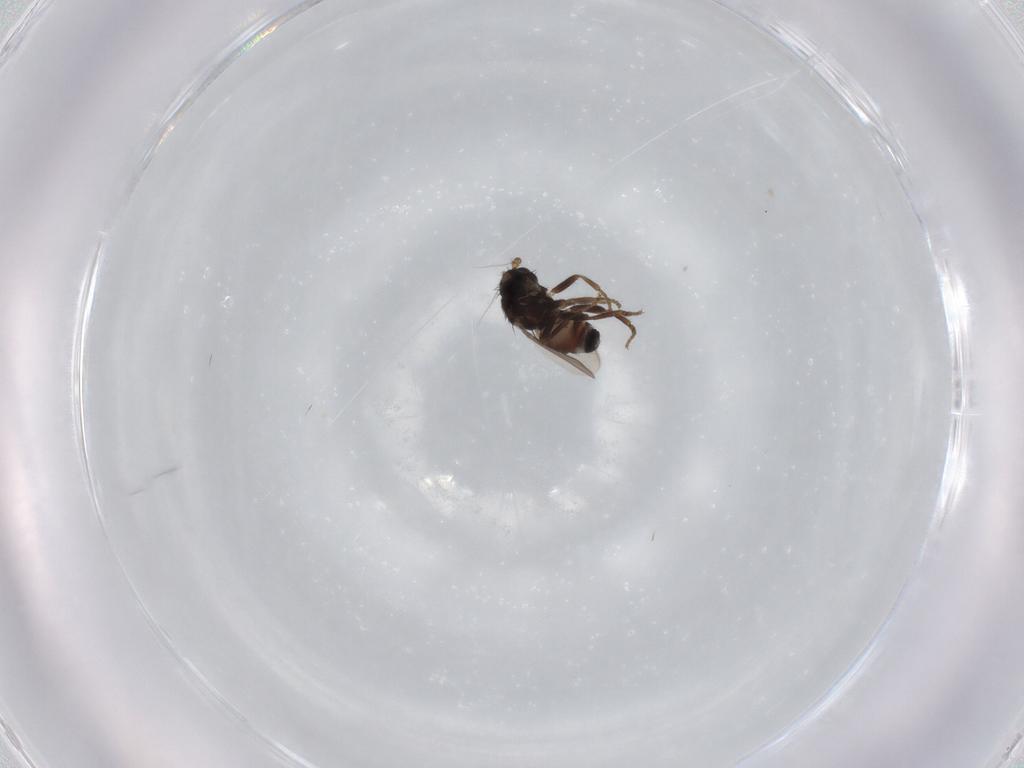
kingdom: Animalia
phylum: Arthropoda
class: Insecta
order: Diptera
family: Sphaeroceridae
